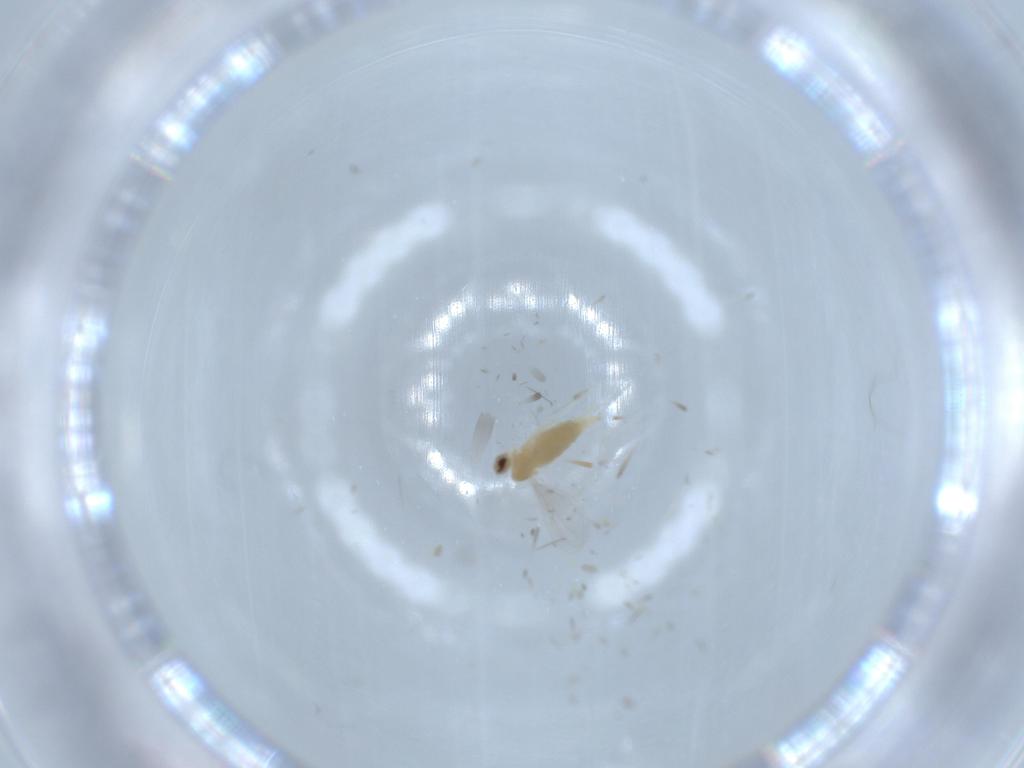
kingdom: Animalia
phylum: Arthropoda
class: Insecta
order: Diptera
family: Cecidomyiidae
